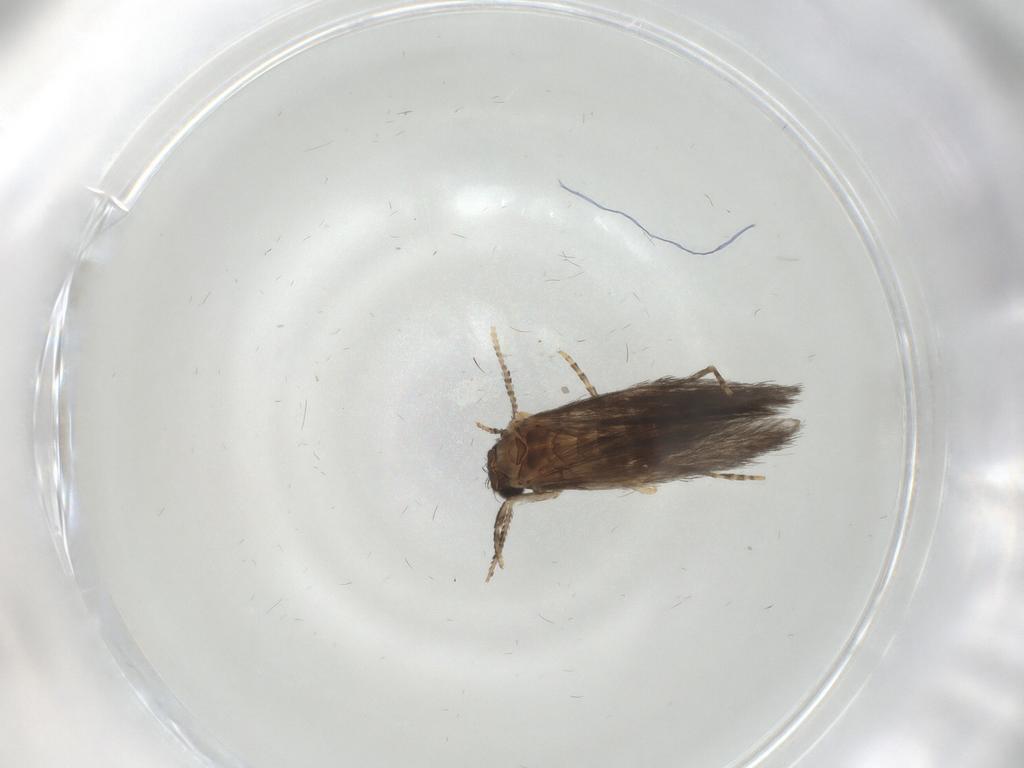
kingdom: Animalia
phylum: Arthropoda
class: Insecta
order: Trichoptera
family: Hydroptilidae
